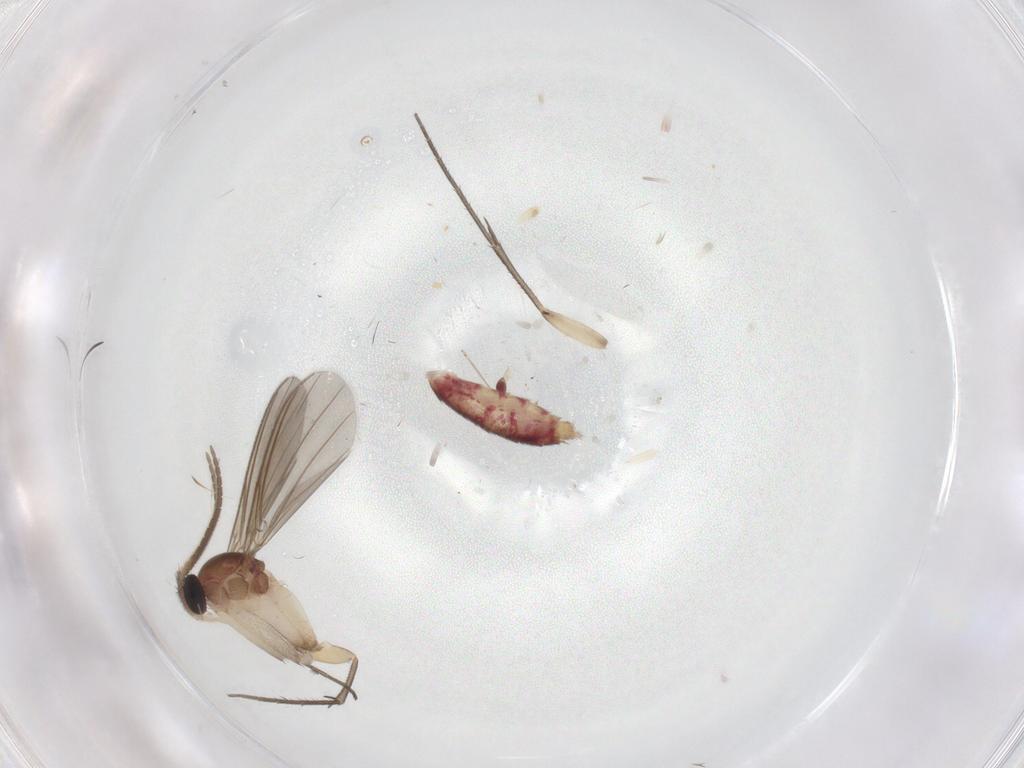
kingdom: Animalia
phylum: Arthropoda
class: Insecta
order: Diptera
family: Mycetophilidae
